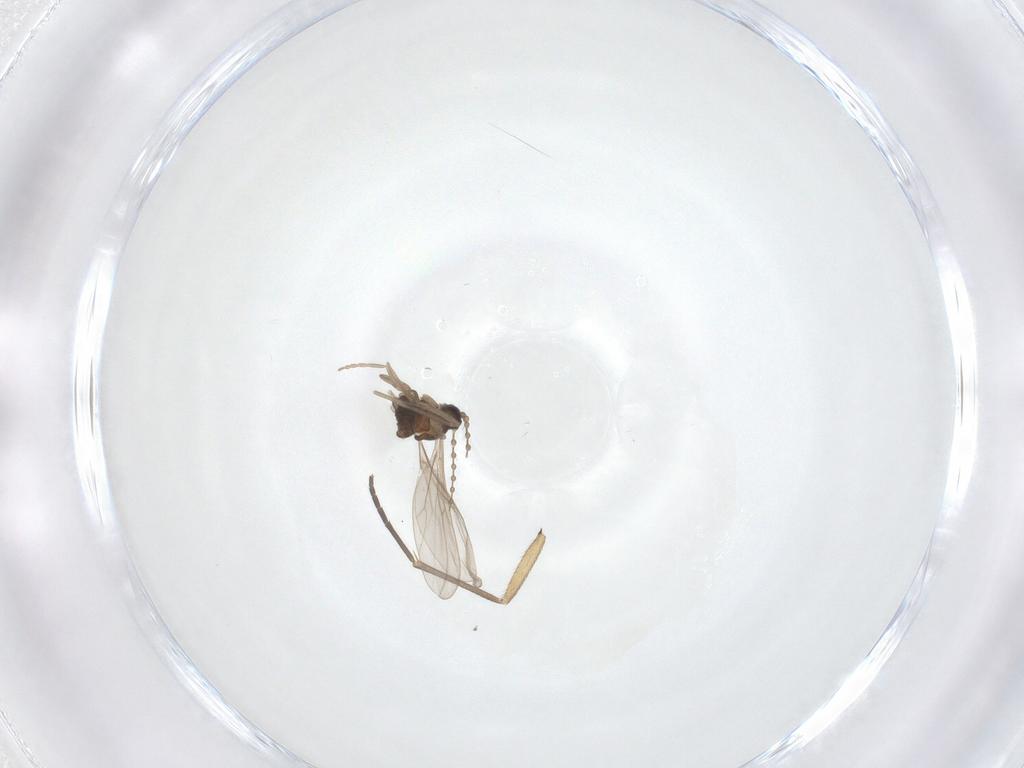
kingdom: Animalia
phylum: Arthropoda
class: Insecta
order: Diptera
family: Cecidomyiidae
